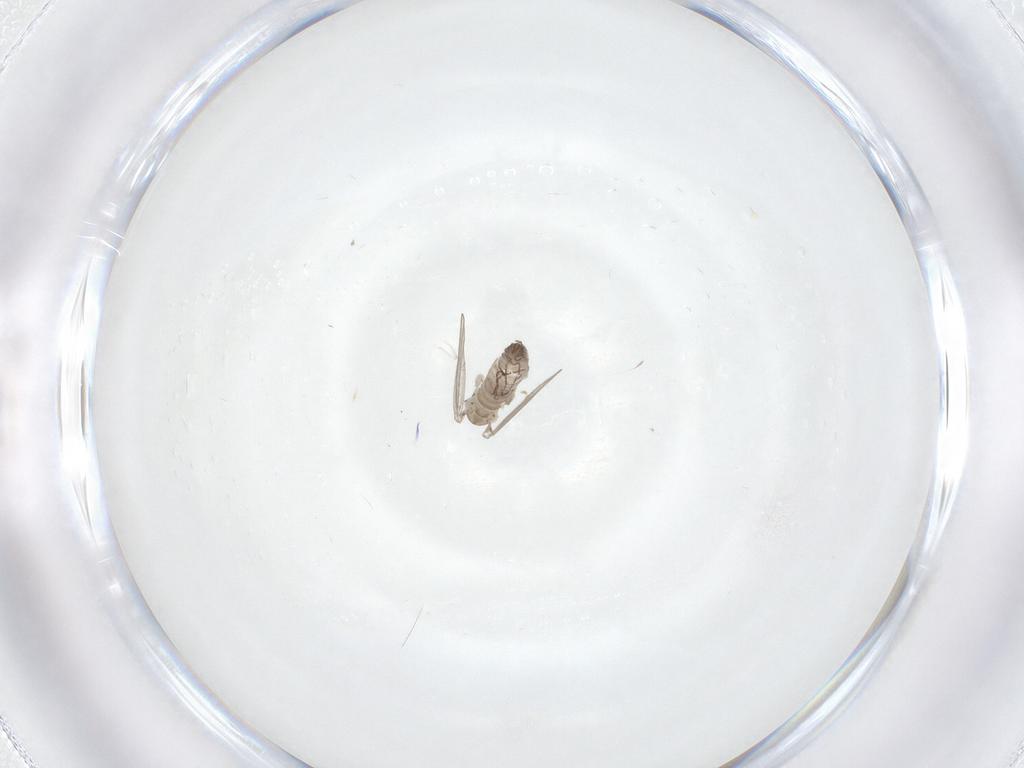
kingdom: Animalia
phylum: Arthropoda
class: Insecta
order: Diptera
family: Psychodidae
